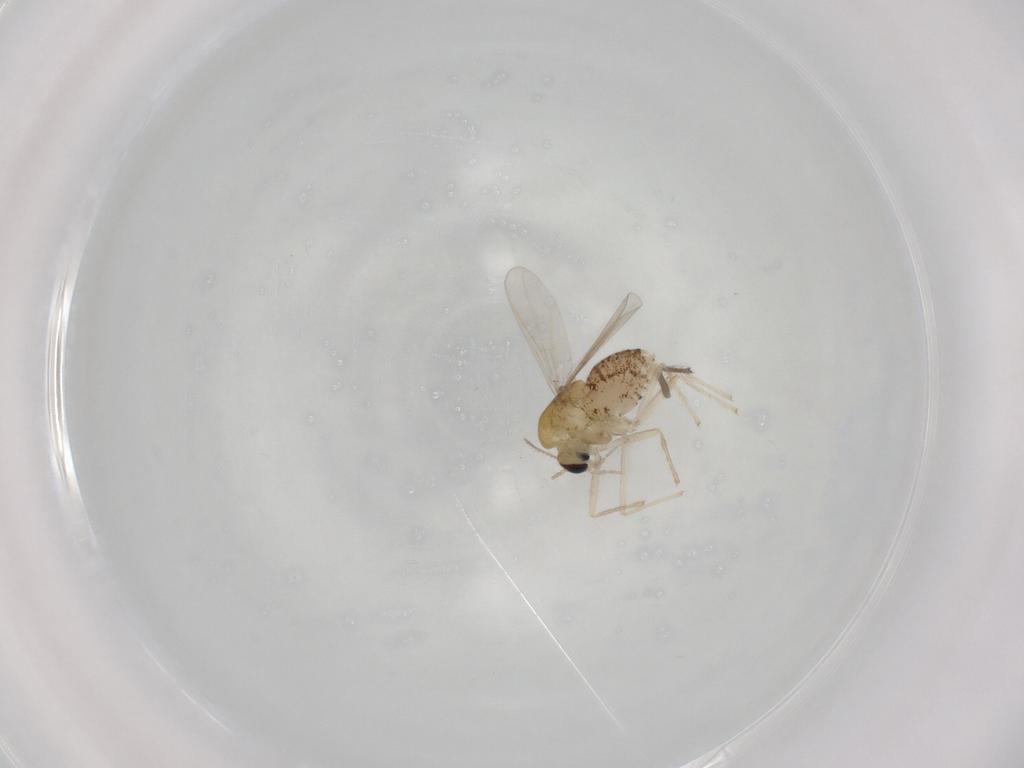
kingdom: Animalia
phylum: Arthropoda
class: Insecta
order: Diptera
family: Chironomidae
